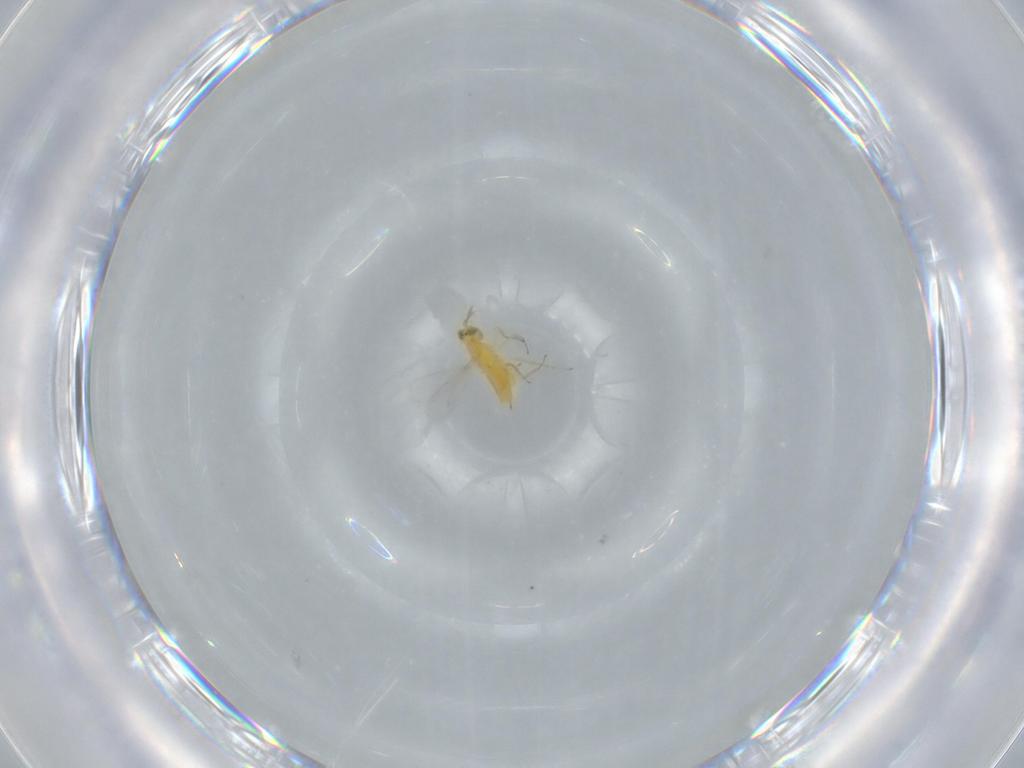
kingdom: Animalia
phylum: Arthropoda
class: Insecta
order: Hymenoptera
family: Aphelinidae
